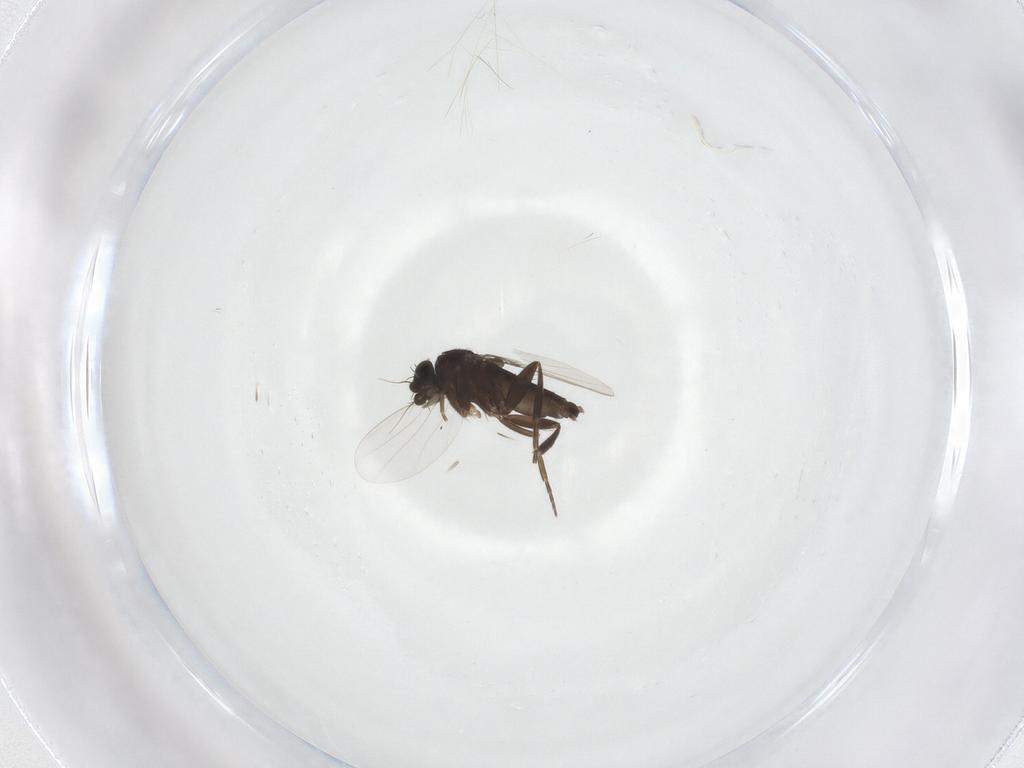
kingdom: Animalia
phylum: Arthropoda
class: Insecta
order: Diptera
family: Phoridae
